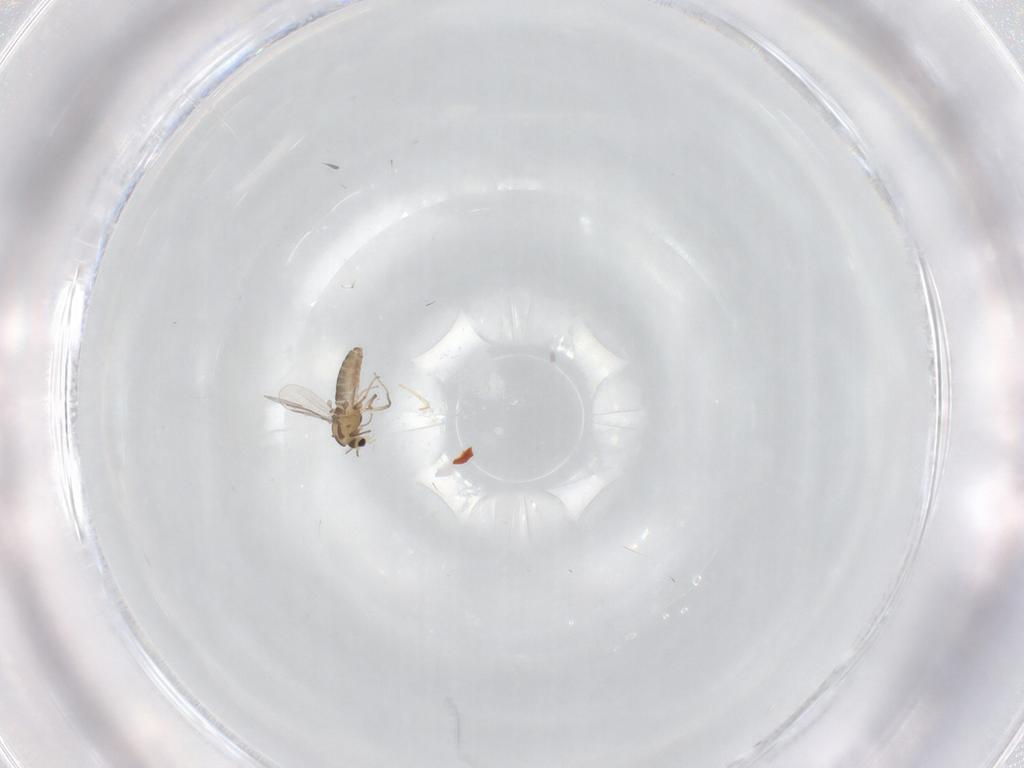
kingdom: Animalia
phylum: Arthropoda
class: Insecta
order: Diptera
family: Chironomidae
